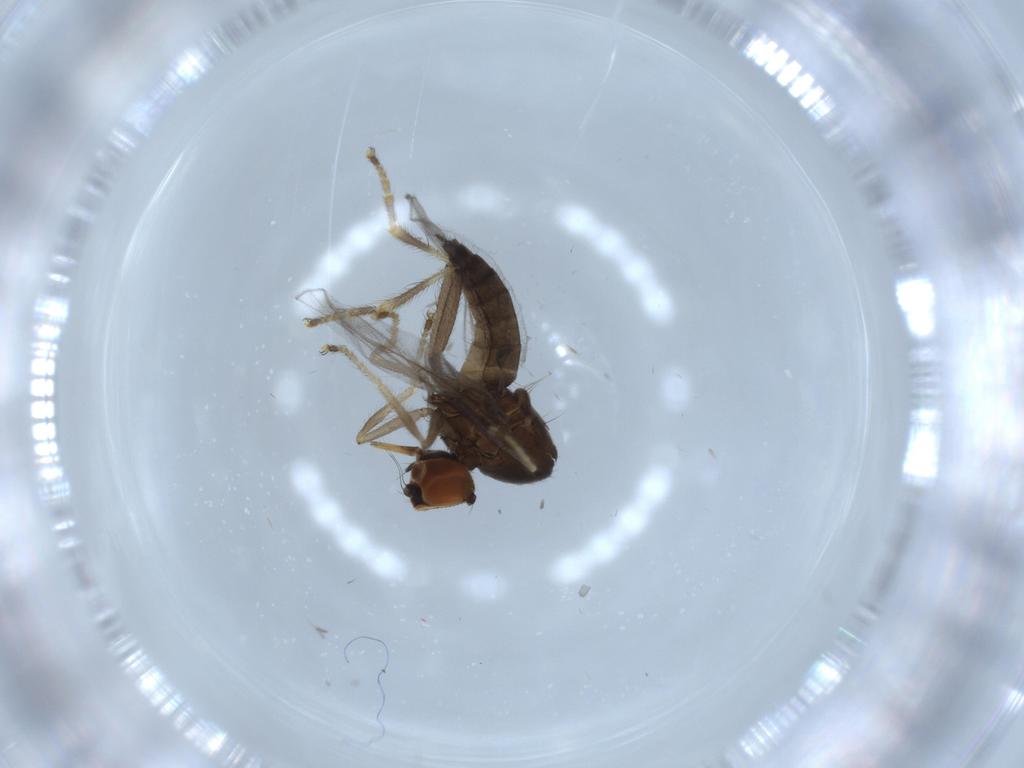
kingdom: Animalia
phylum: Arthropoda
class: Insecta
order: Diptera
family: Hybotidae
